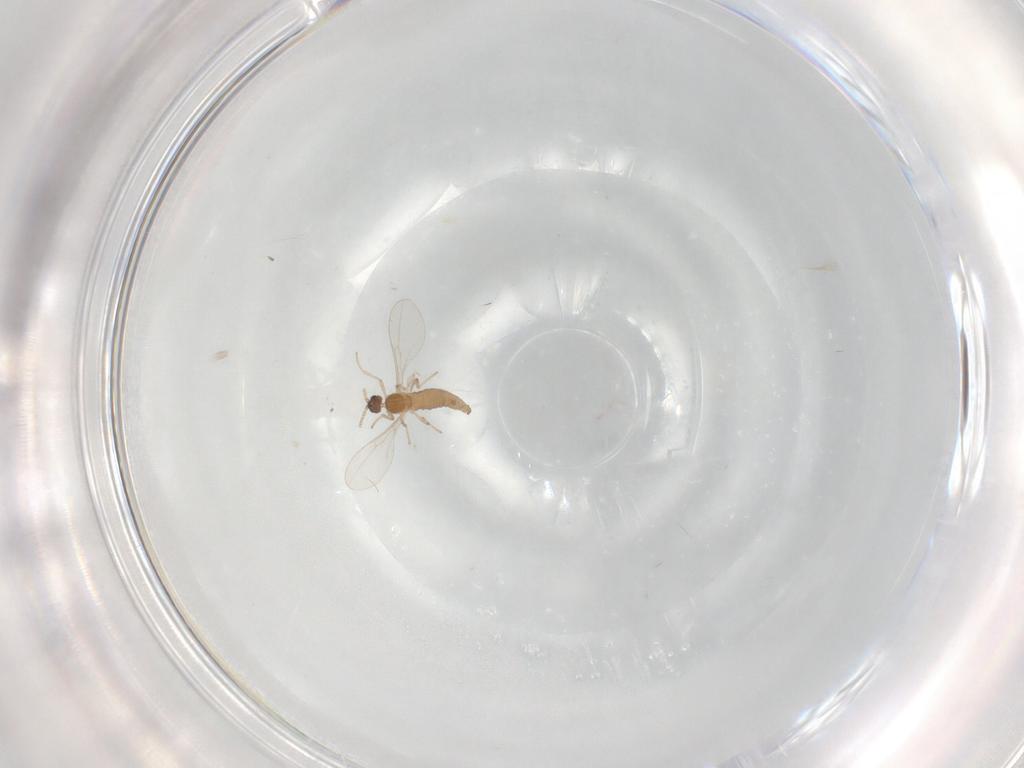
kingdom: Animalia
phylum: Arthropoda
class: Insecta
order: Diptera
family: Cecidomyiidae
